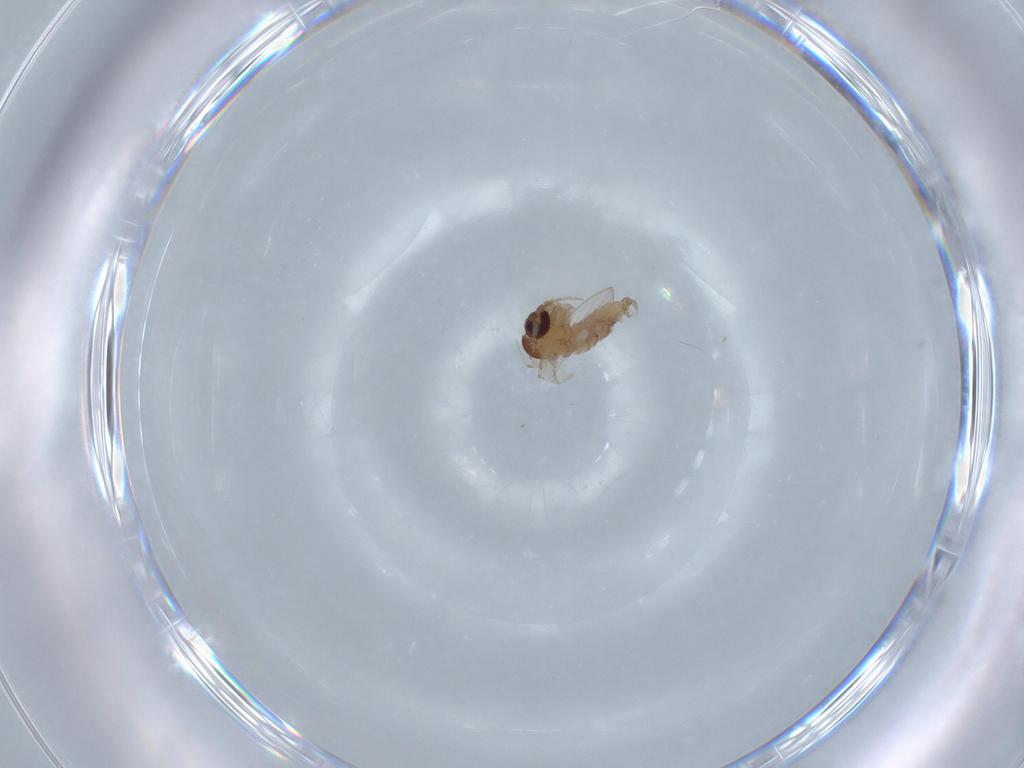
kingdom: Animalia
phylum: Arthropoda
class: Insecta
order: Diptera
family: Psychodidae
